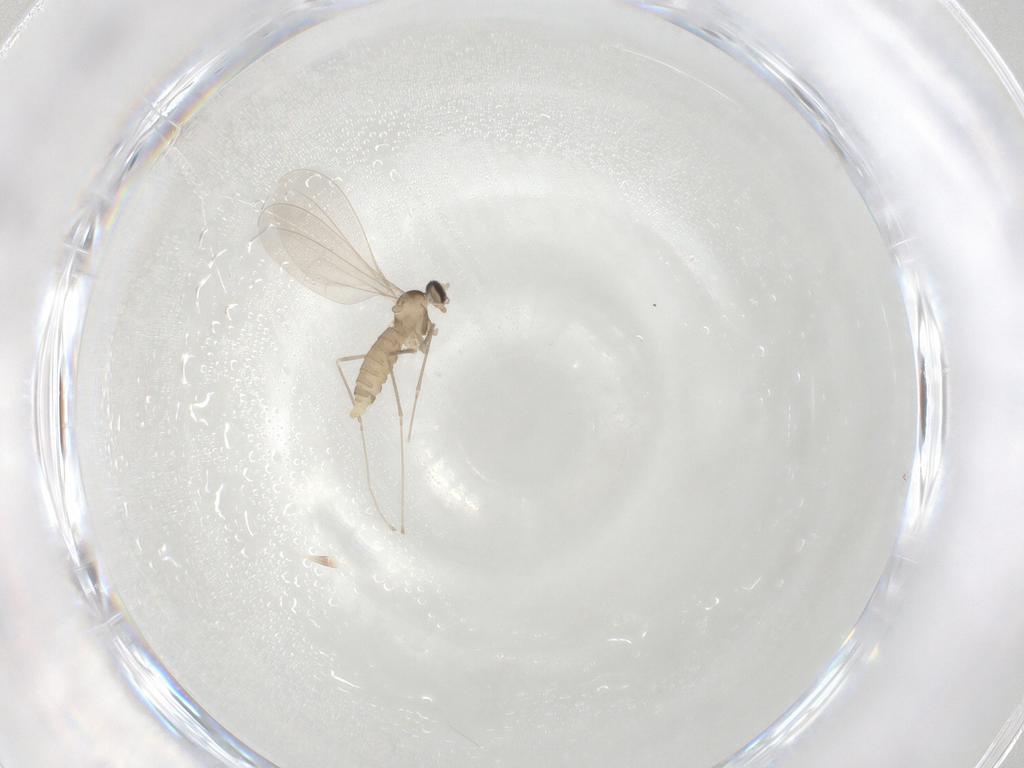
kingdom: Animalia
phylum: Arthropoda
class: Insecta
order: Diptera
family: Cecidomyiidae
